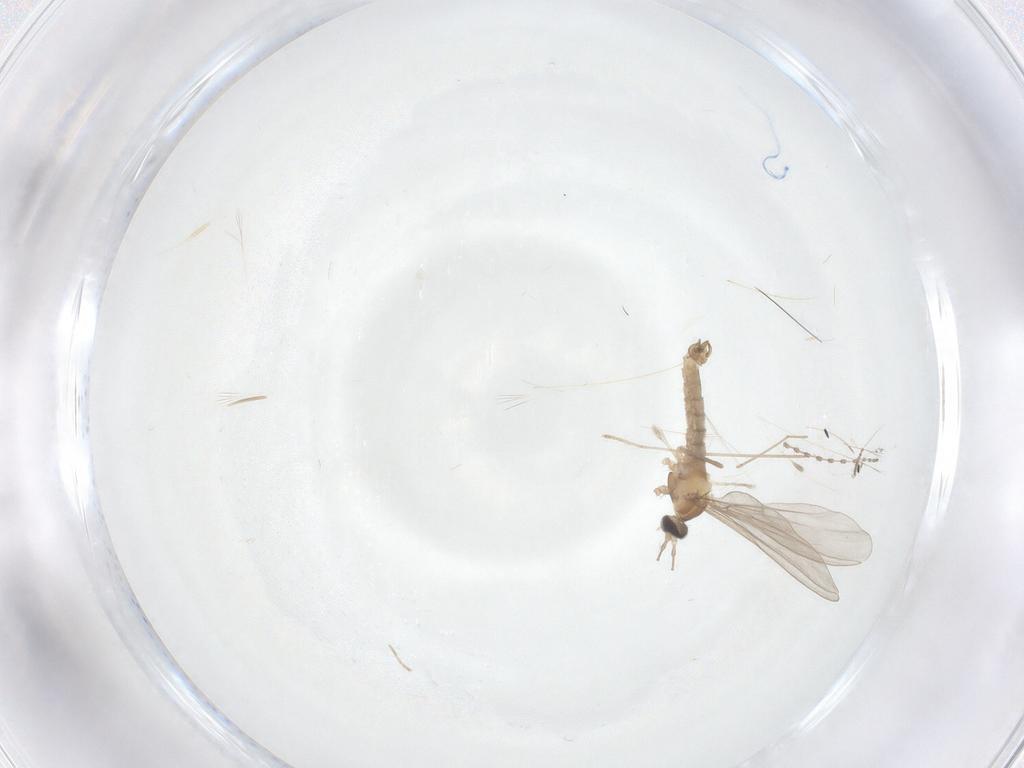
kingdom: Animalia
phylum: Arthropoda
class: Insecta
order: Diptera
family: Cecidomyiidae
